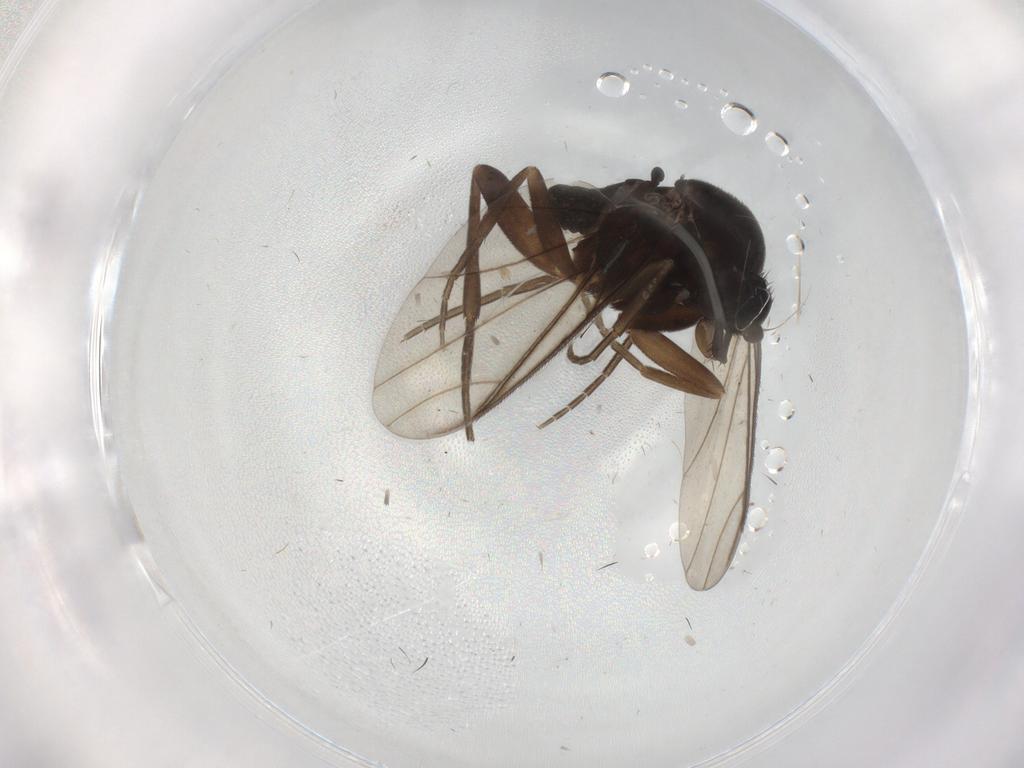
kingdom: Animalia
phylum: Arthropoda
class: Insecta
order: Diptera
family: Phoridae
